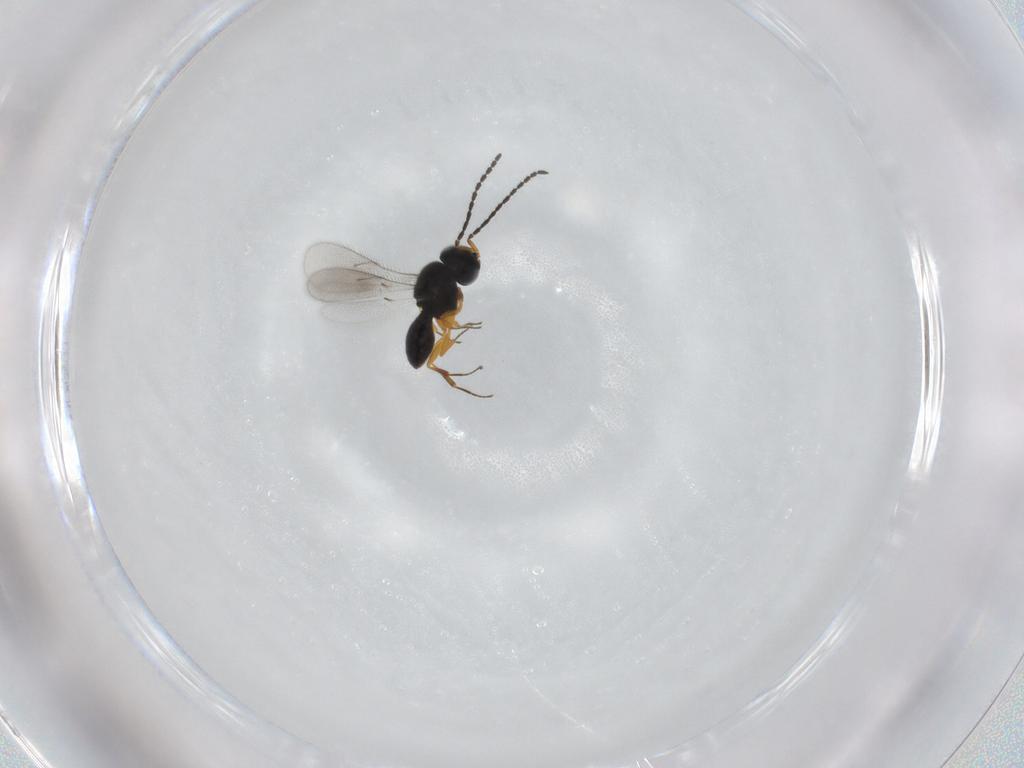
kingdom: Animalia
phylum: Arthropoda
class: Insecta
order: Hymenoptera
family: Scelionidae
